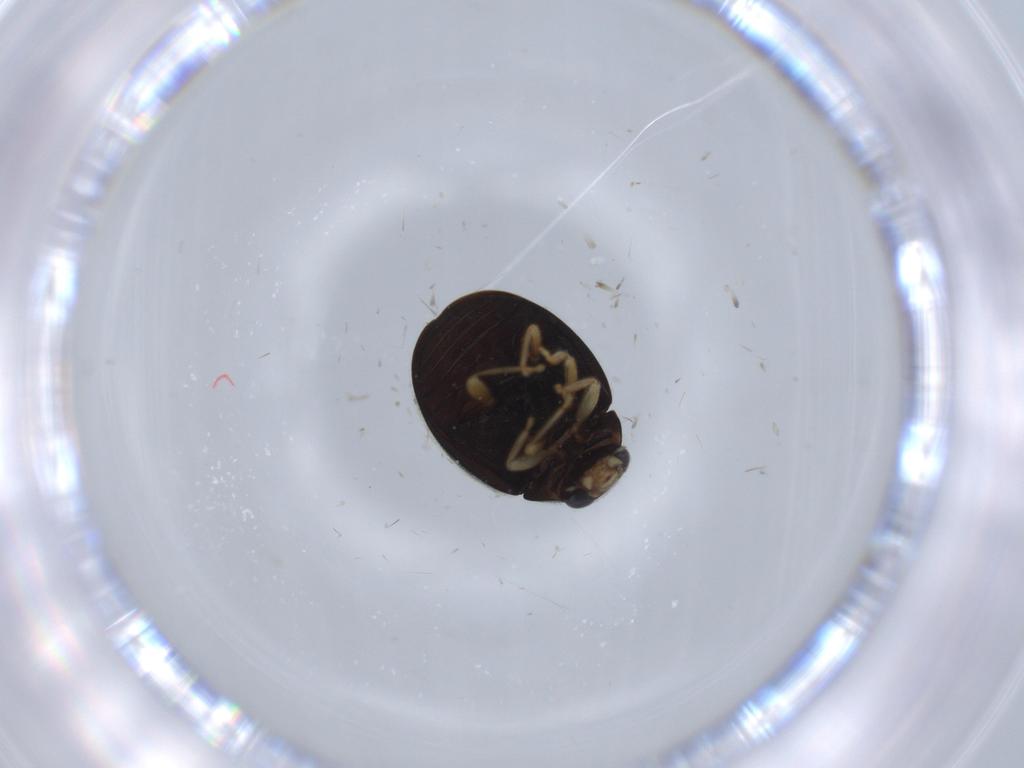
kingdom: Animalia
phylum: Arthropoda
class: Insecta
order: Coleoptera
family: Coccinellidae
